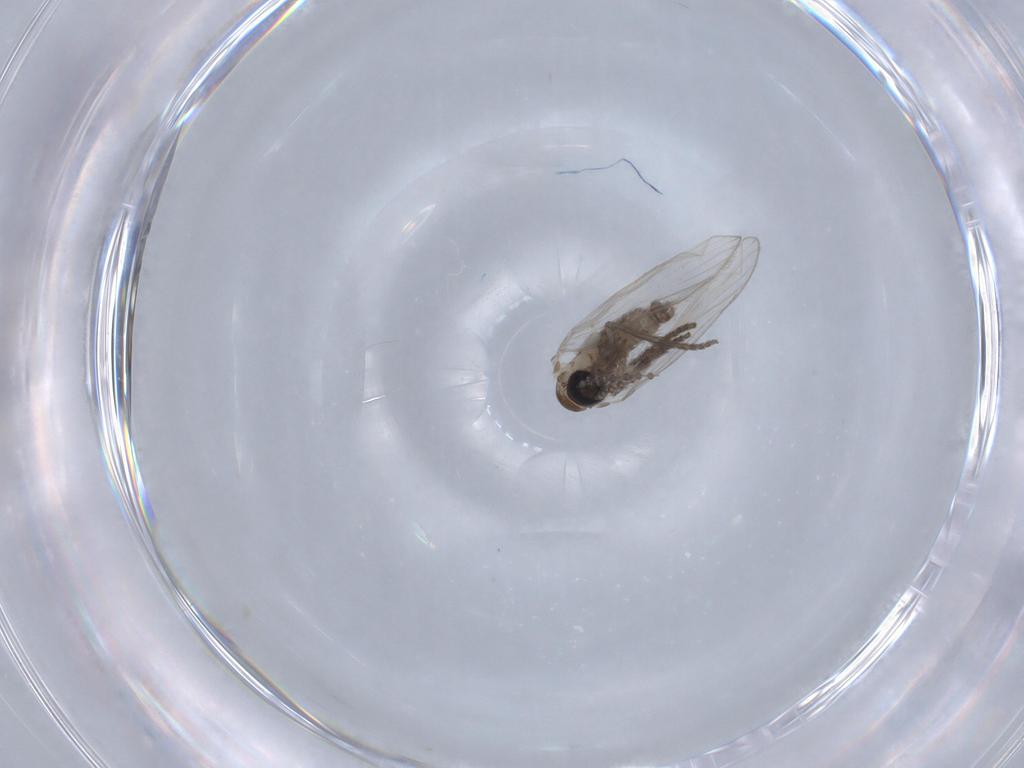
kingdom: Animalia
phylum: Arthropoda
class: Insecta
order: Diptera
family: Psychodidae
